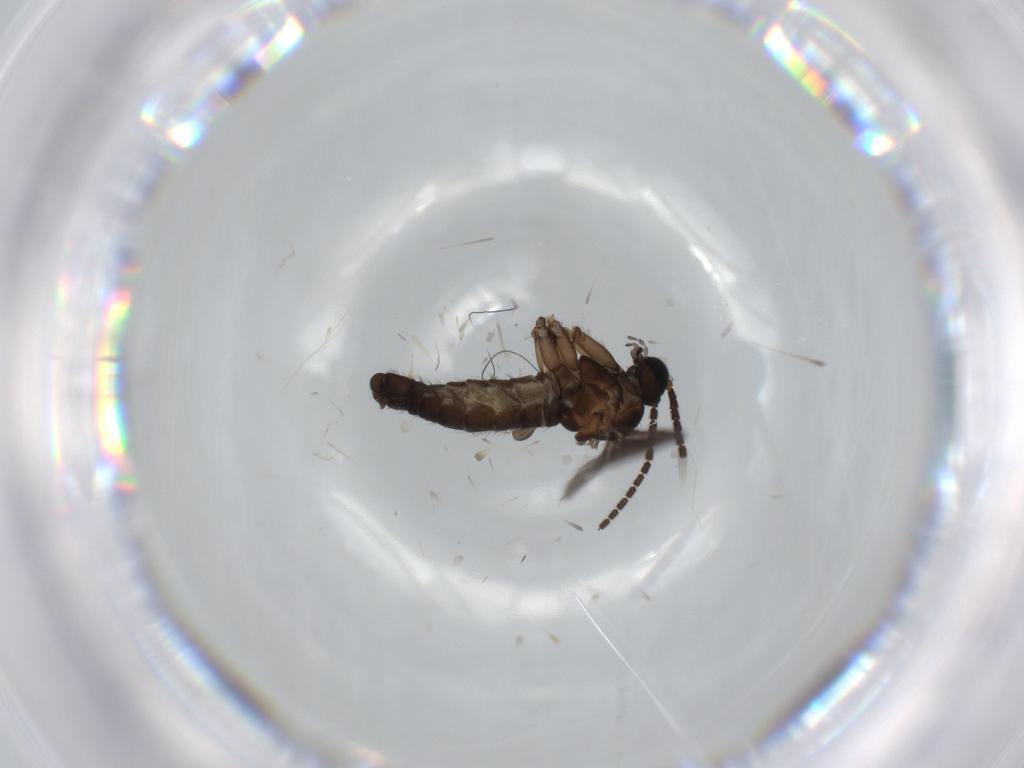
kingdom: Animalia
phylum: Arthropoda
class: Insecta
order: Diptera
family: Sciaridae
